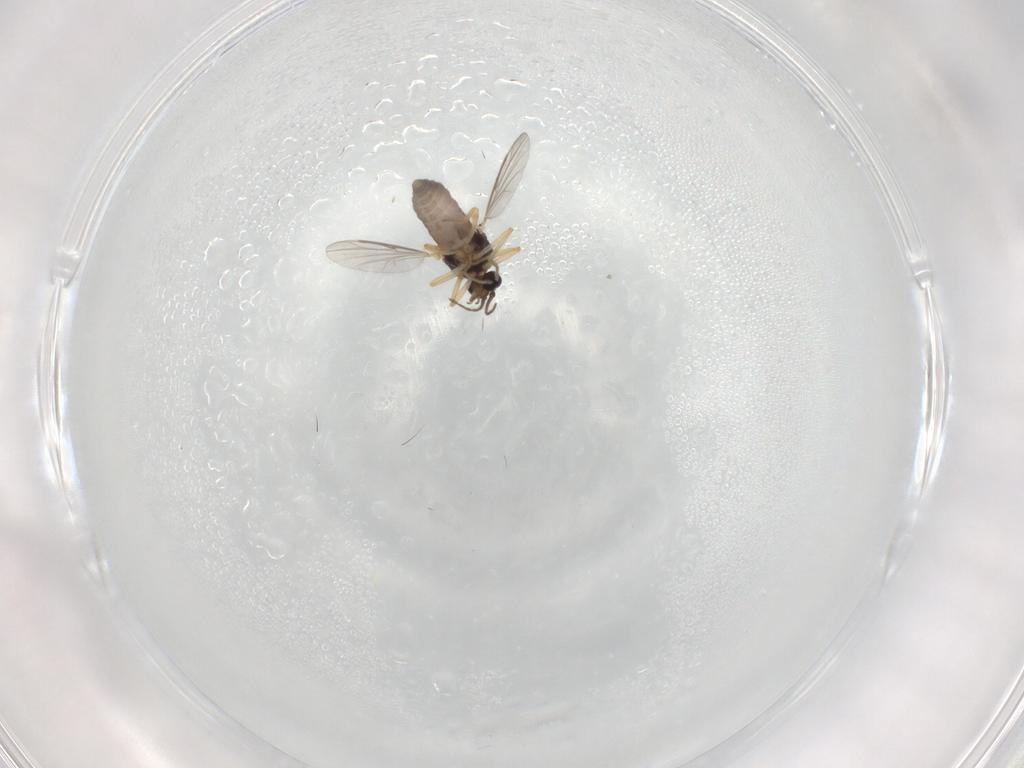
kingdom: Animalia
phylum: Arthropoda
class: Insecta
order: Diptera
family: Ceratopogonidae
